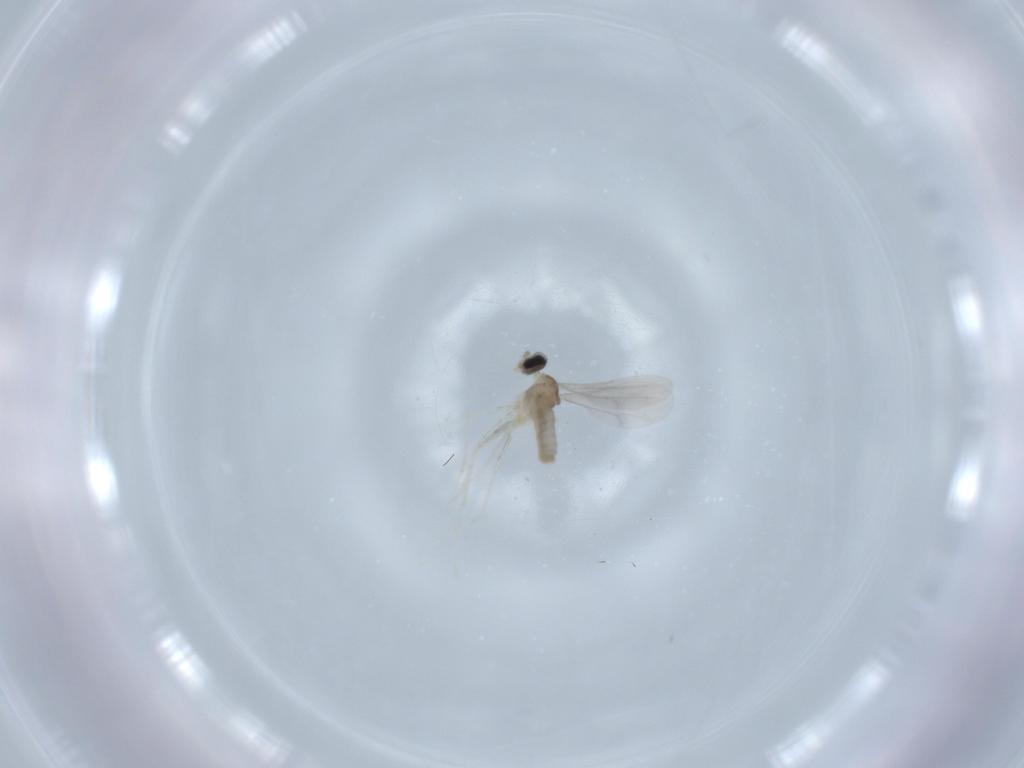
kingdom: Animalia
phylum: Arthropoda
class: Insecta
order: Diptera
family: Cecidomyiidae
